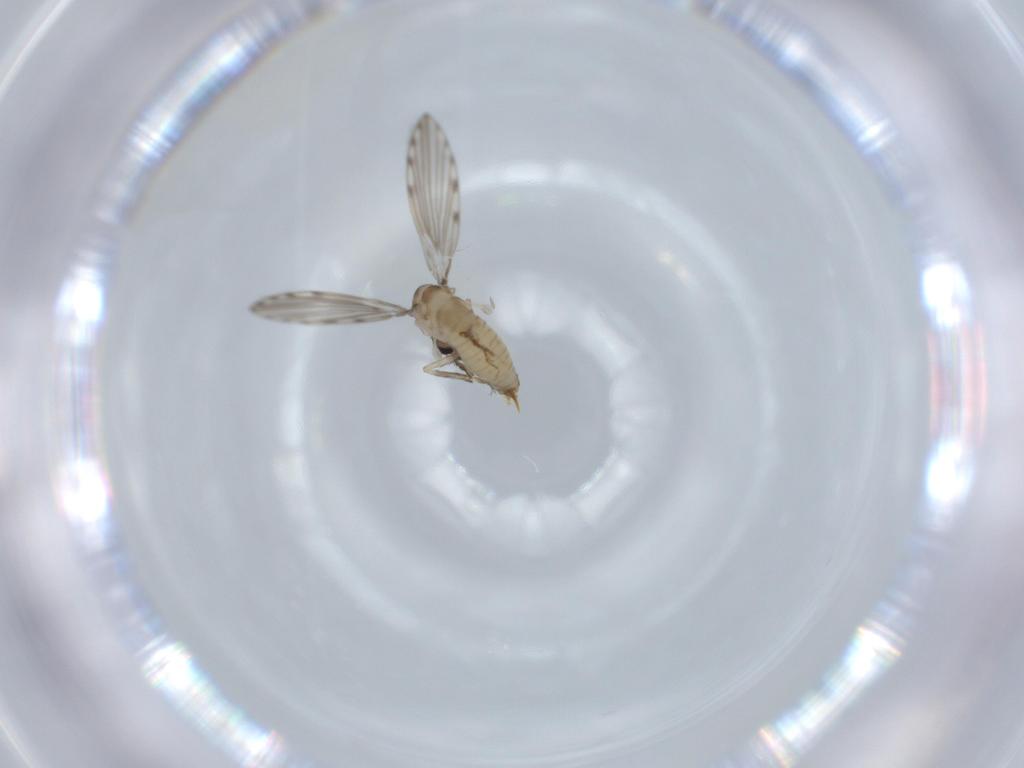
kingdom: Animalia
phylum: Arthropoda
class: Insecta
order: Diptera
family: Psychodidae
